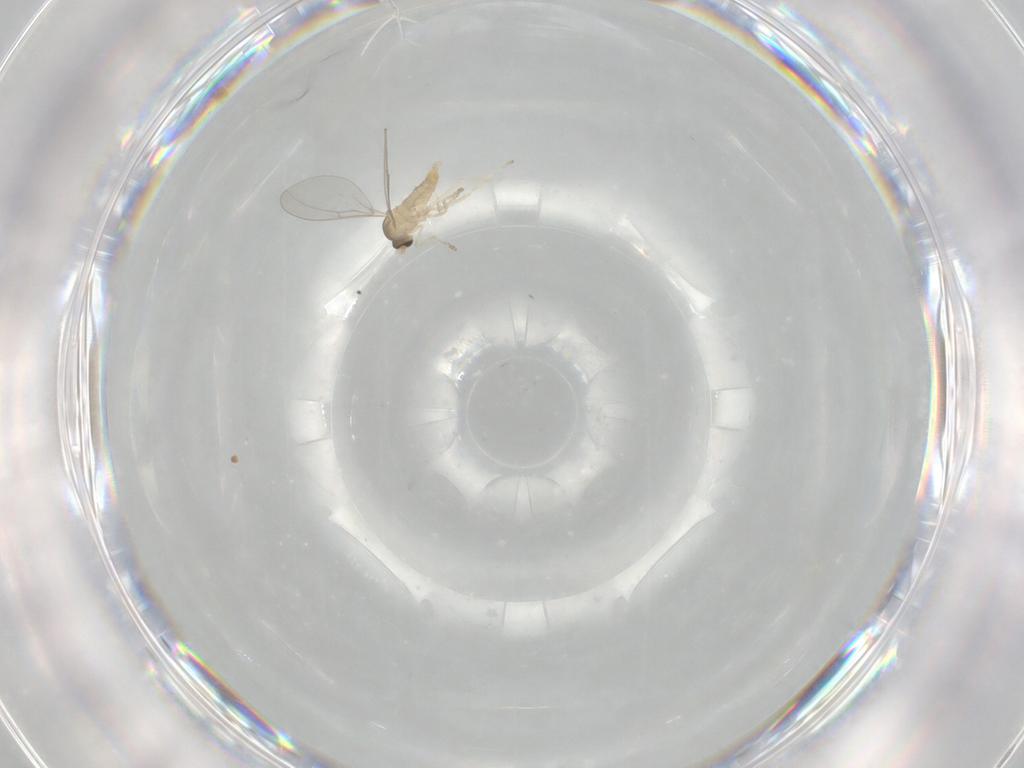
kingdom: Animalia
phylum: Arthropoda
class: Insecta
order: Diptera
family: Cecidomyiidae
